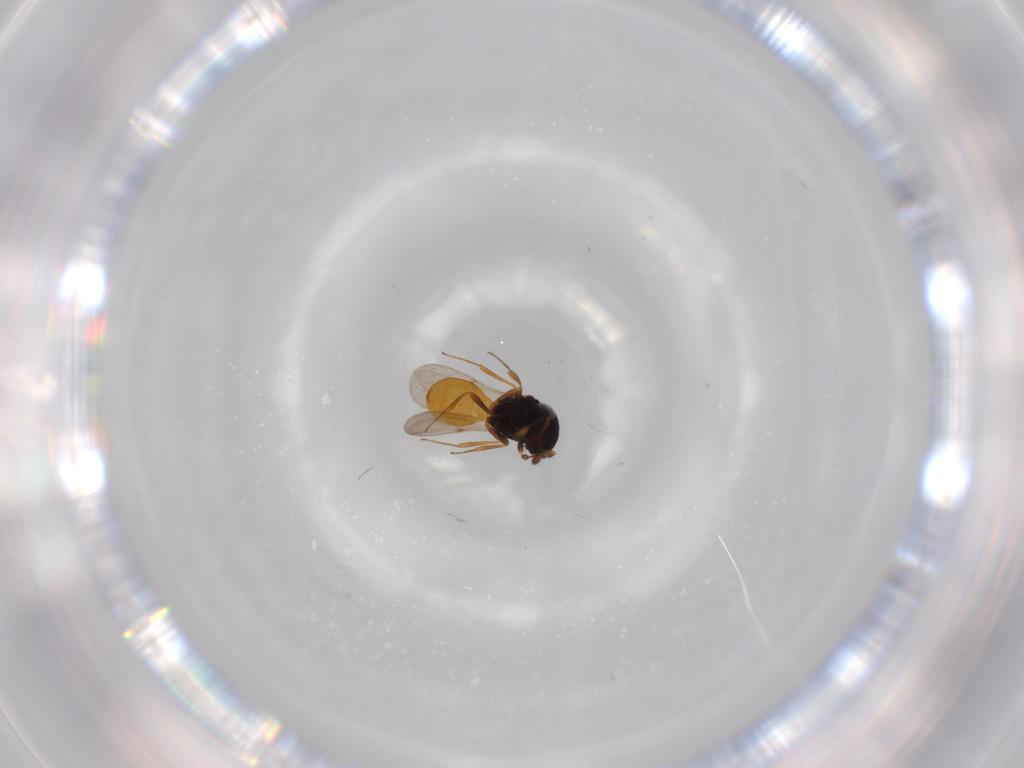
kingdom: Animalia
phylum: Arthropoda
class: Insecta
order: Hymenoptera
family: Scelionidae
